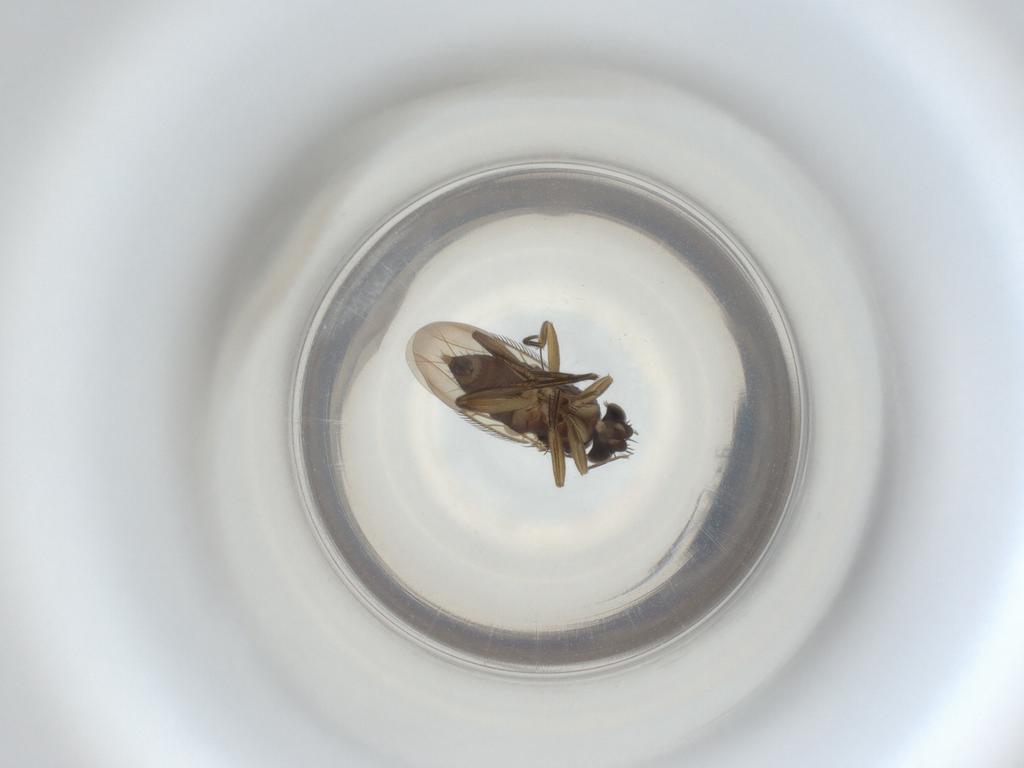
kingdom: Animalia
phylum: Arthropoda
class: Insecta
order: Diptera
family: Phoridae
